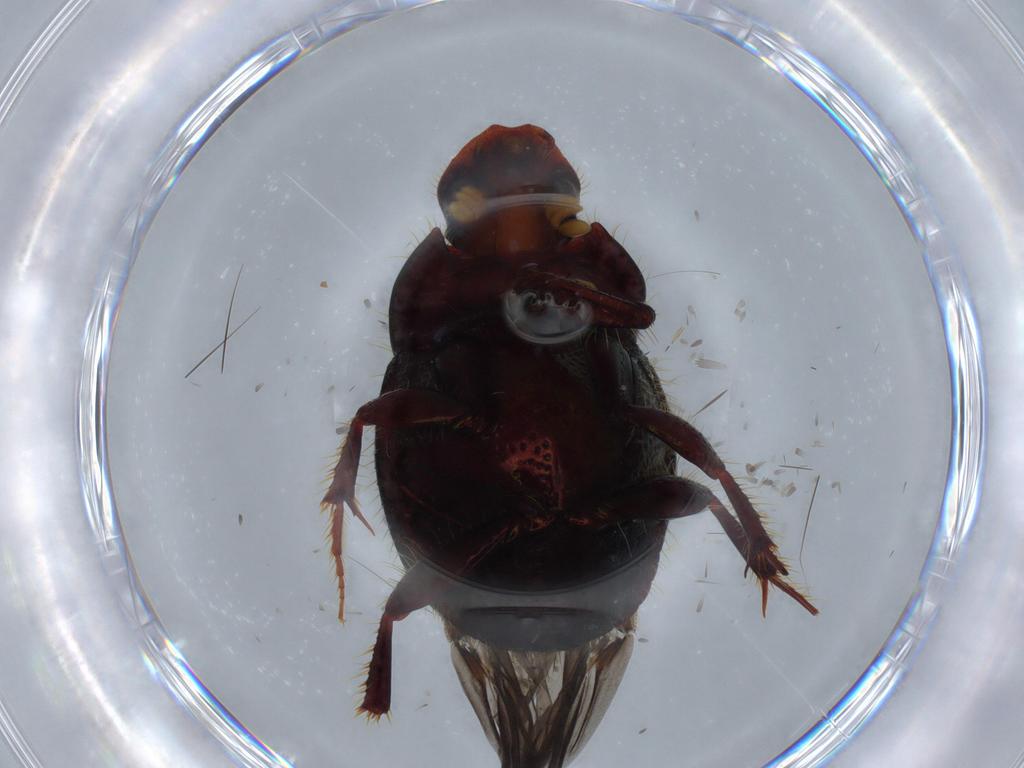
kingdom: Animalia
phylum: Arthropoda
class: Insecta
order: Coleoptera
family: Scarabaeidae
